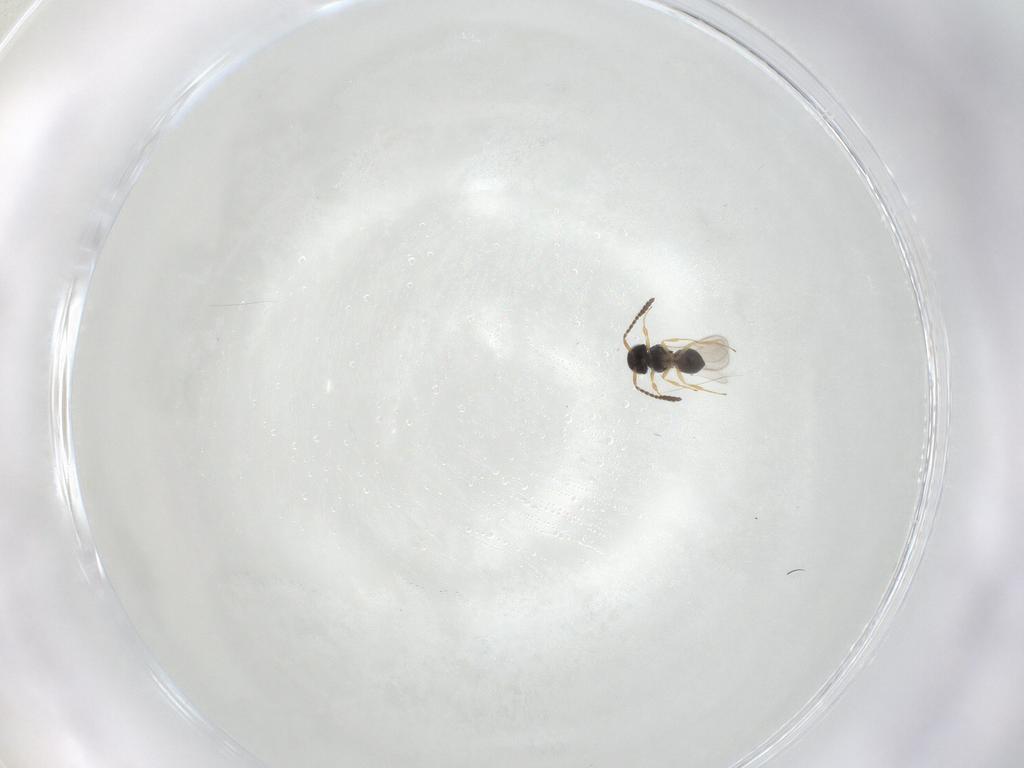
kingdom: Animalia
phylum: Arthropoda
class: Insecta
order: Hymenoptera
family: Scelionidae
